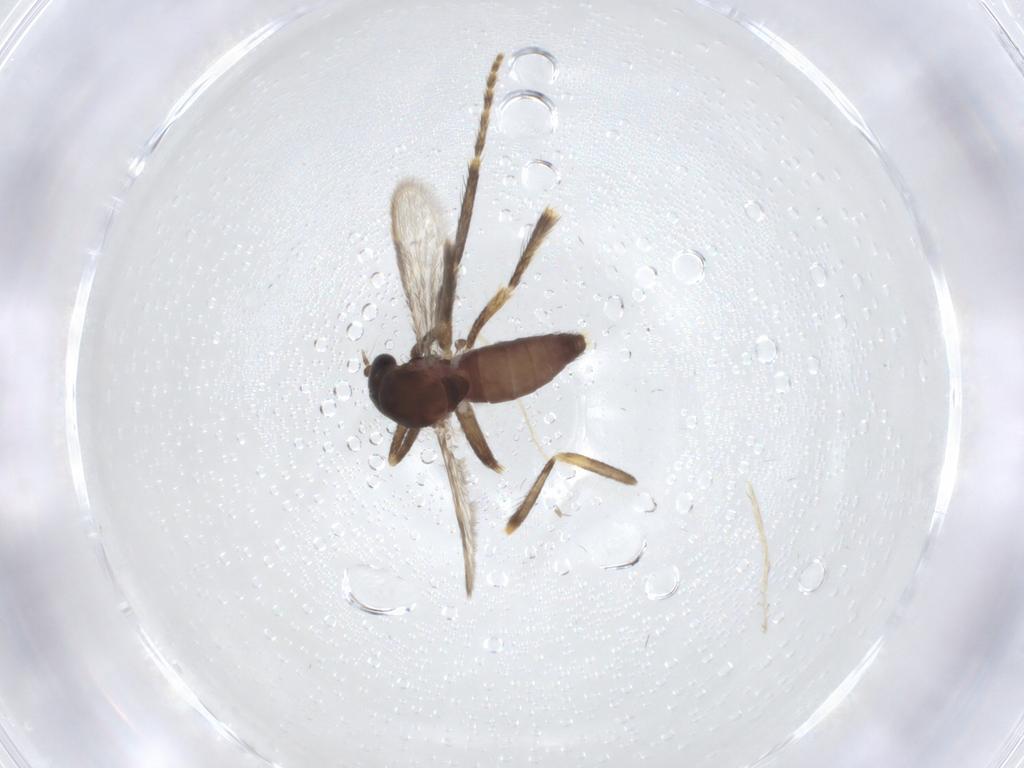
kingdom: Animalia
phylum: Arthropoda
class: Insecta
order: Diptera
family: Phoridae
